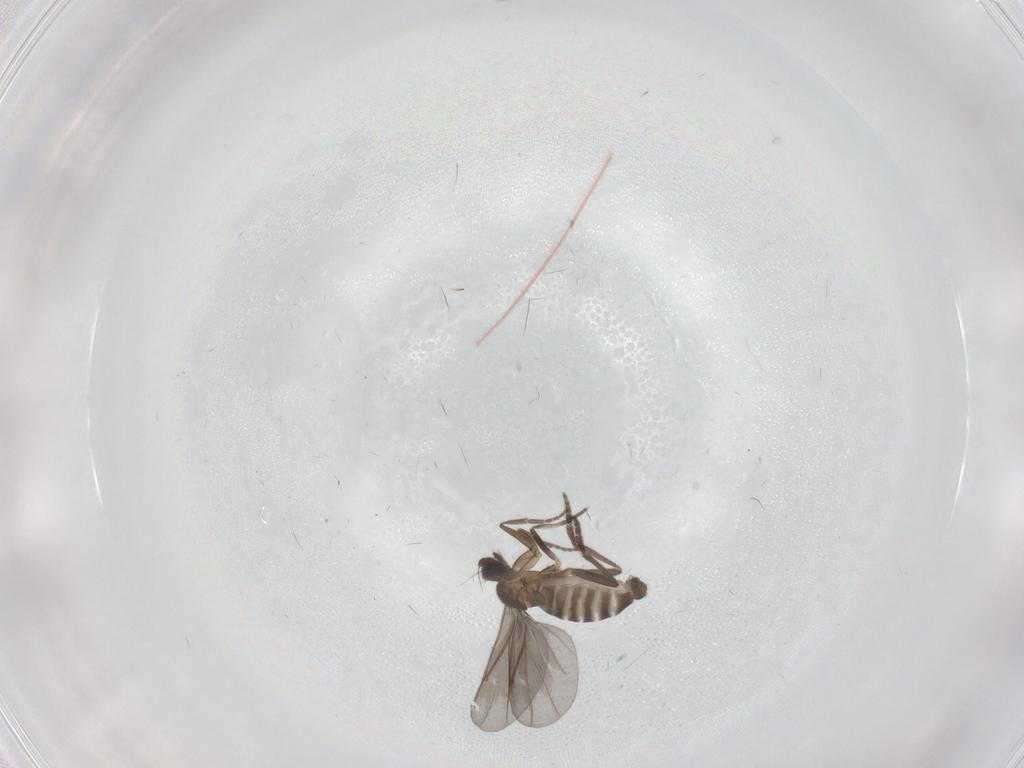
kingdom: Animalia
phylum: Arthropoda
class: Insecta
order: Diptera
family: Phoridae
